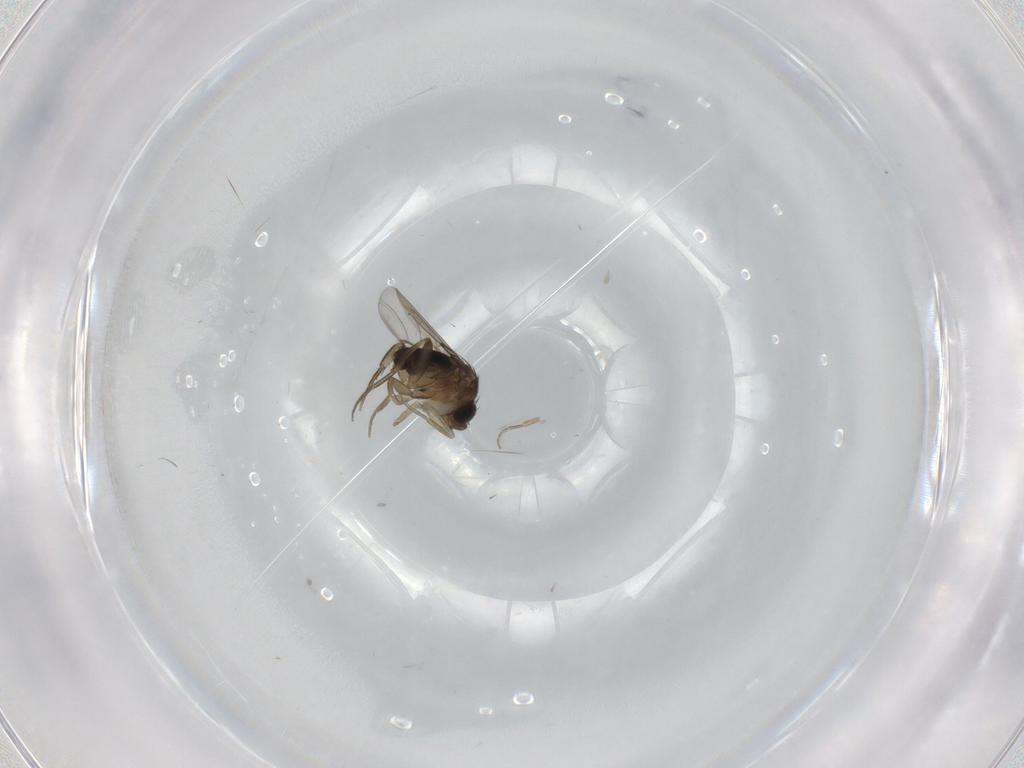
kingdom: Animalia
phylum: Arthropoda
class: Insecta
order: Diptera
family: Phoridae
